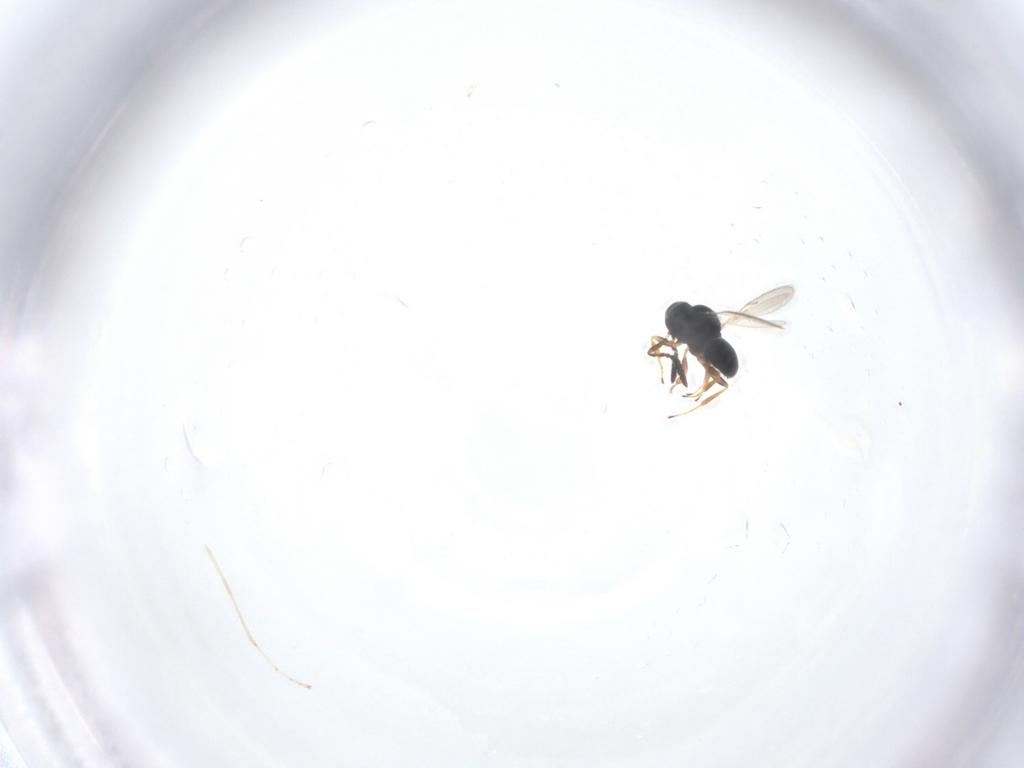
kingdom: Animalia
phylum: Arthropoda
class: Insecta
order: Hymenoptera
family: Scelionidae
